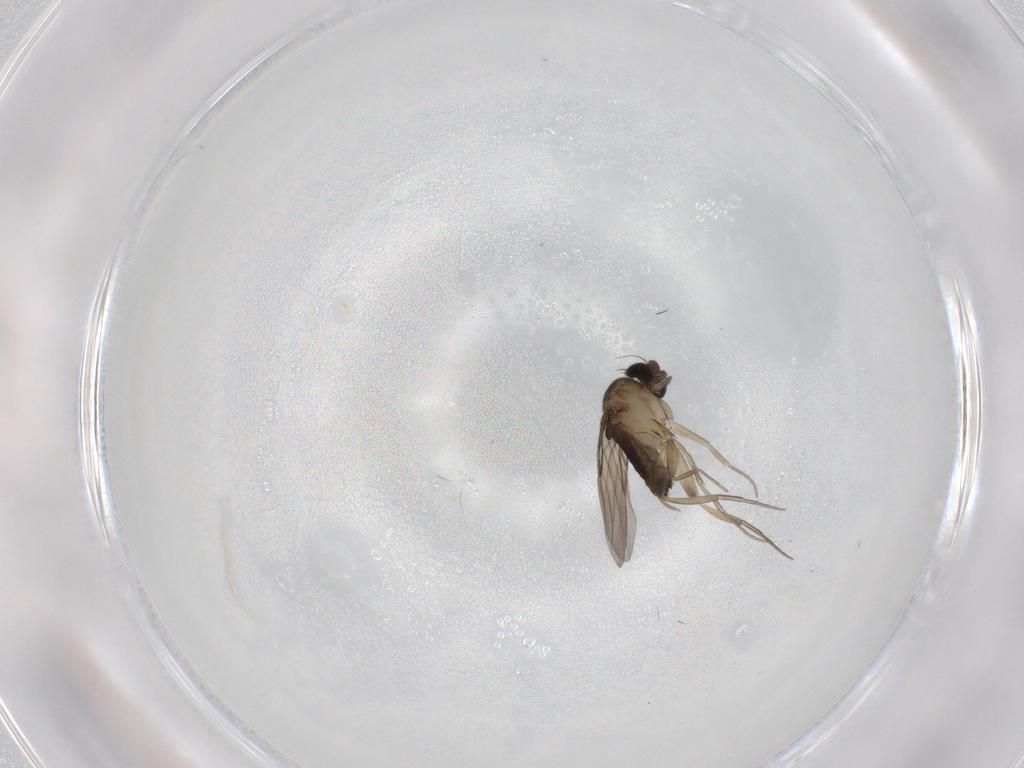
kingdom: Animalia
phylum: Arthropoda
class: Insecta
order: Diptera
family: Phoridae
